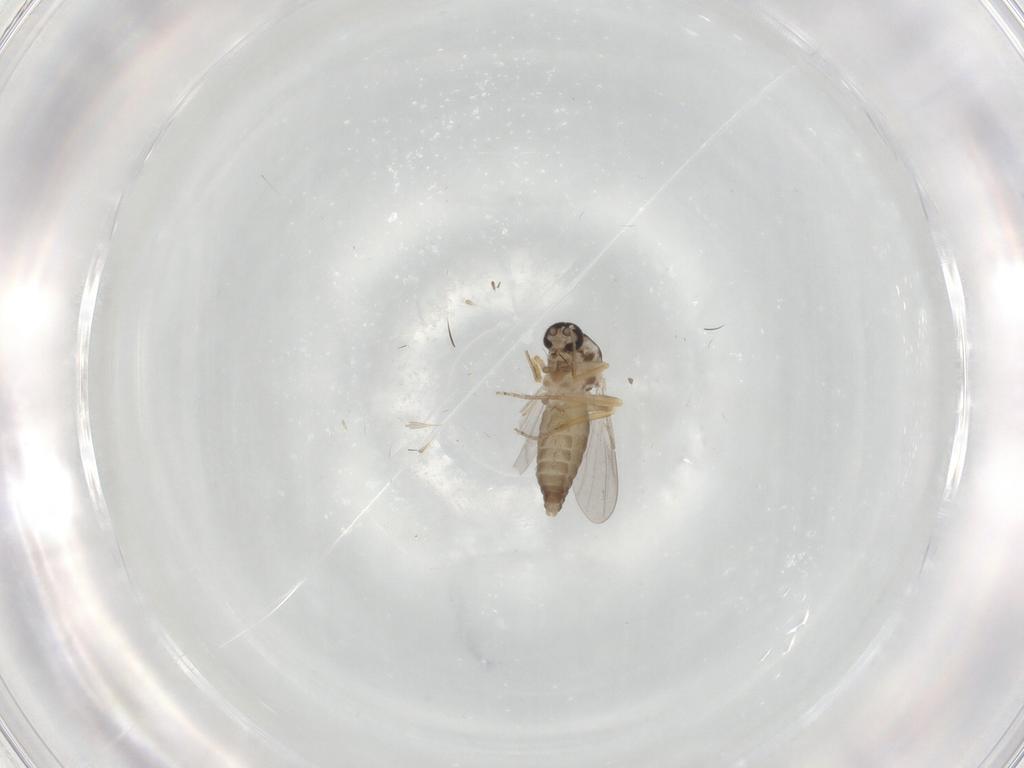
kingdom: Animalia
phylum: Arthropoda
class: Insecta
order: Diptera
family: Ceratopogonidae
